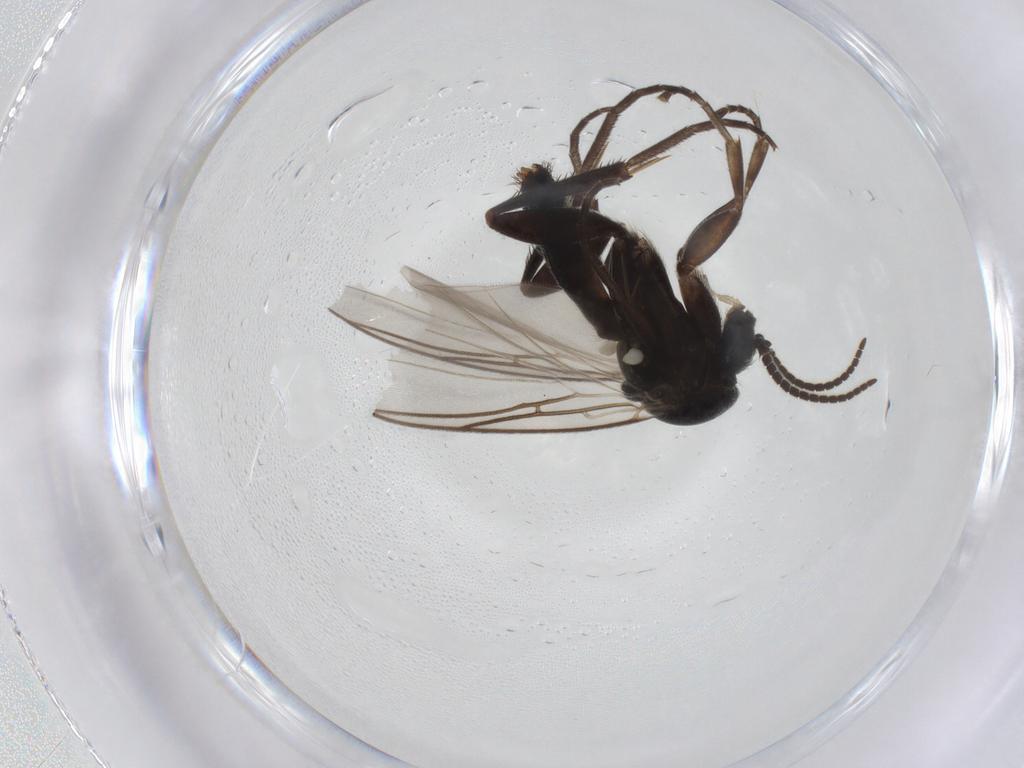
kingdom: Animalia
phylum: Arthropoda
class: Insecta
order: Diptera
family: Mycetophilidae
